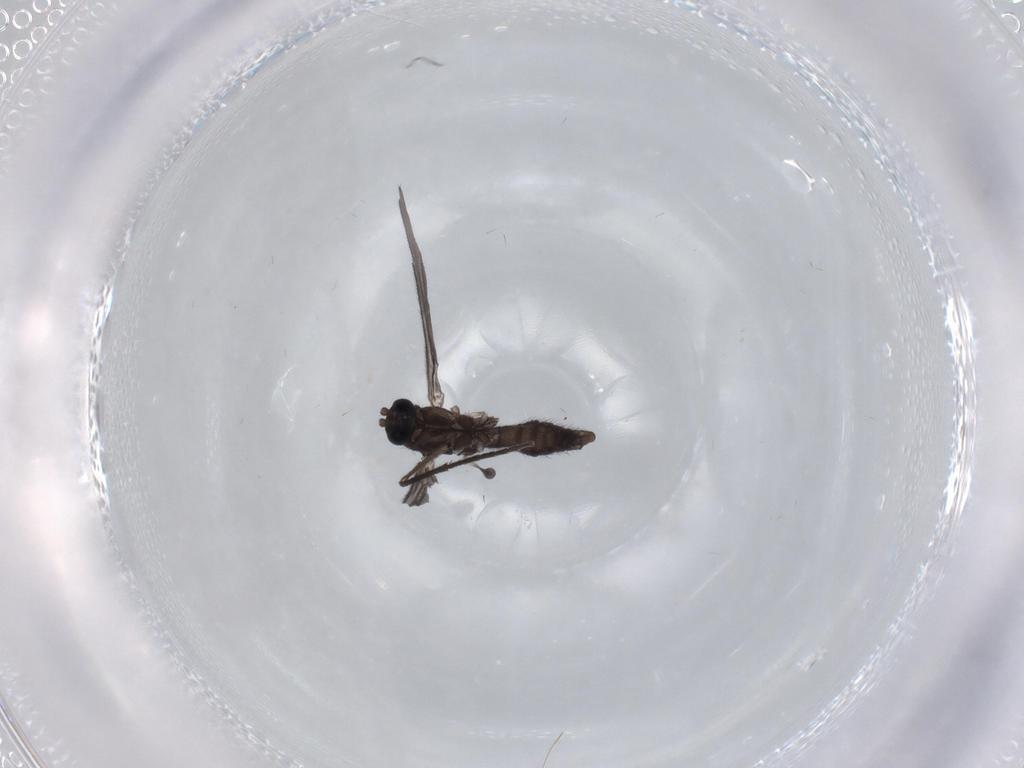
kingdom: Animalia
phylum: Arthropoda
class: Insecta
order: Diptera
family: Sciaridae
